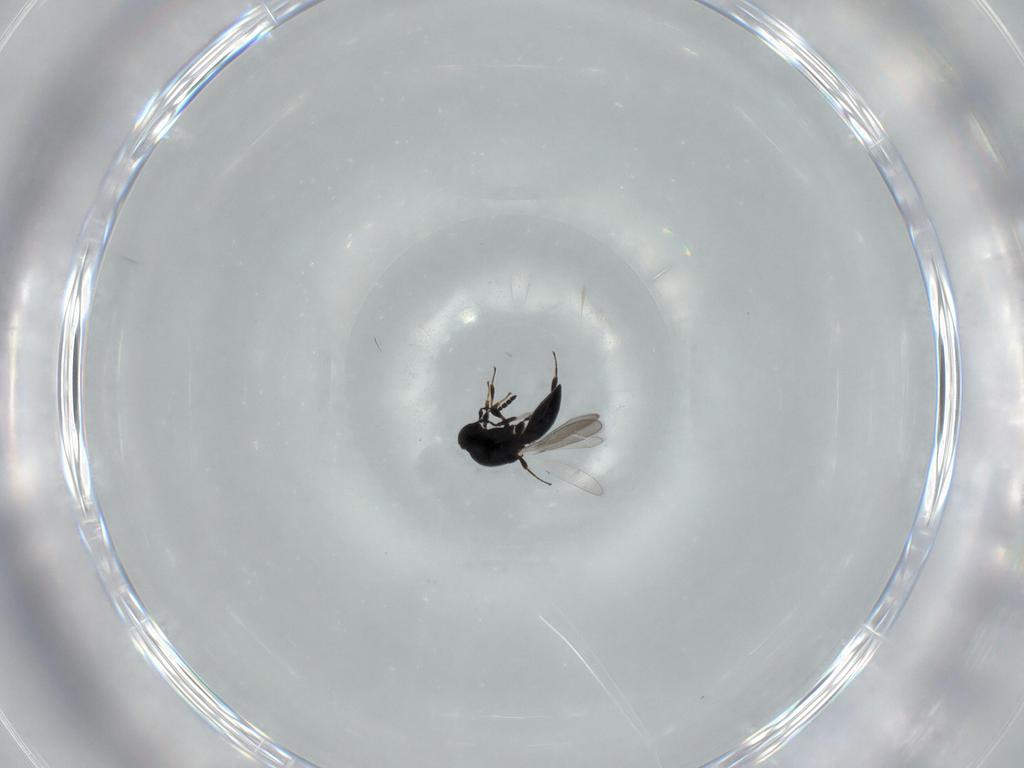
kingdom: Animalia
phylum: Arthropoda
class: Insecta
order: Hymenoptera
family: Platygastridae
